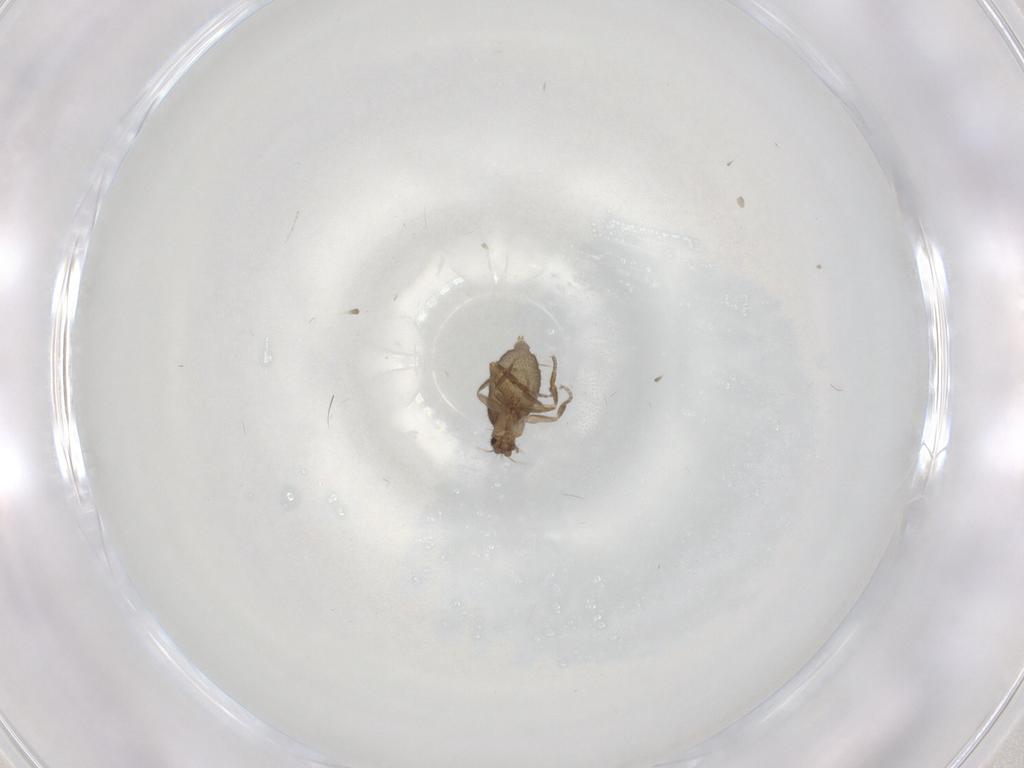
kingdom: Animalia
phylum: Arthropoda
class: Insecta
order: Diptera
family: Cecidomyiidae
